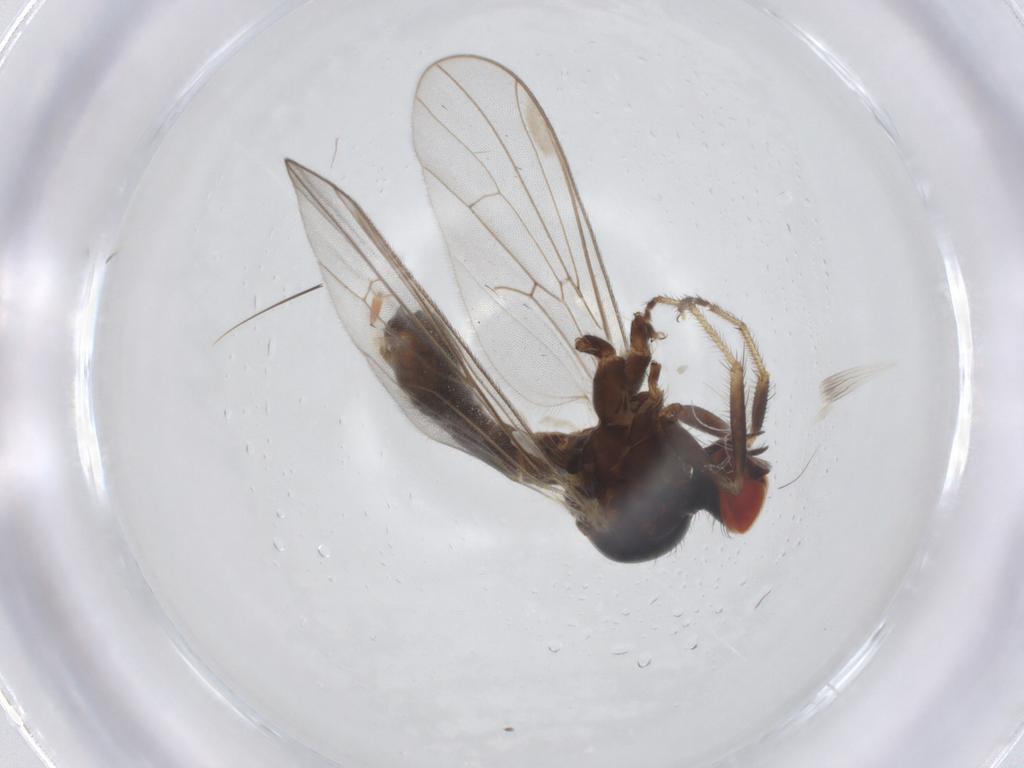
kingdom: Animalia
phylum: Arthropoda
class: Insecta
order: Diptera
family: Hybotidae
